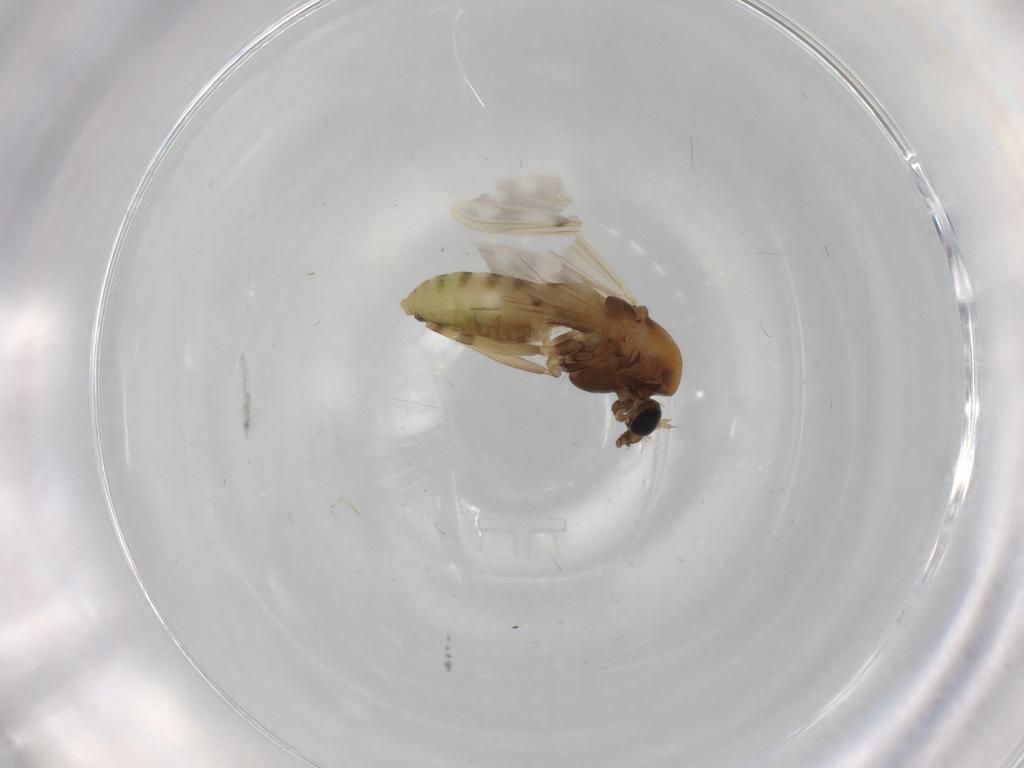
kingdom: Animalia
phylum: Arthropoda
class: Insecta
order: Diptera
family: Chironomidae
